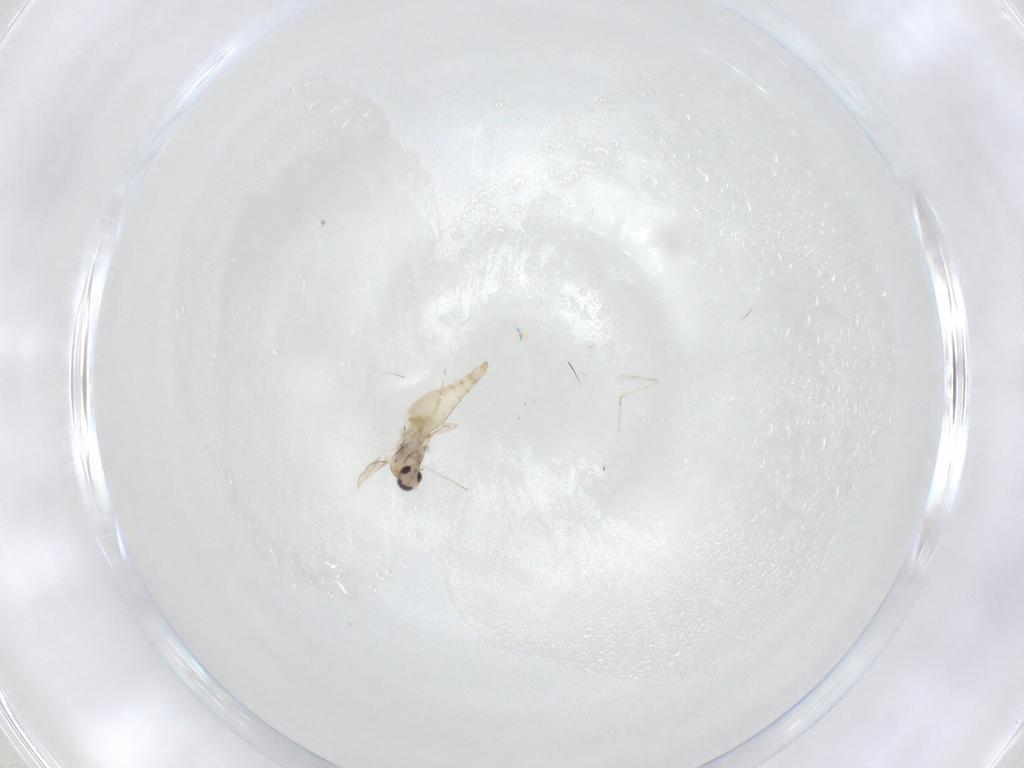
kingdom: Animalia
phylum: Arthropoda
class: Insecta
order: Diptera
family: Cecidomyiidae
